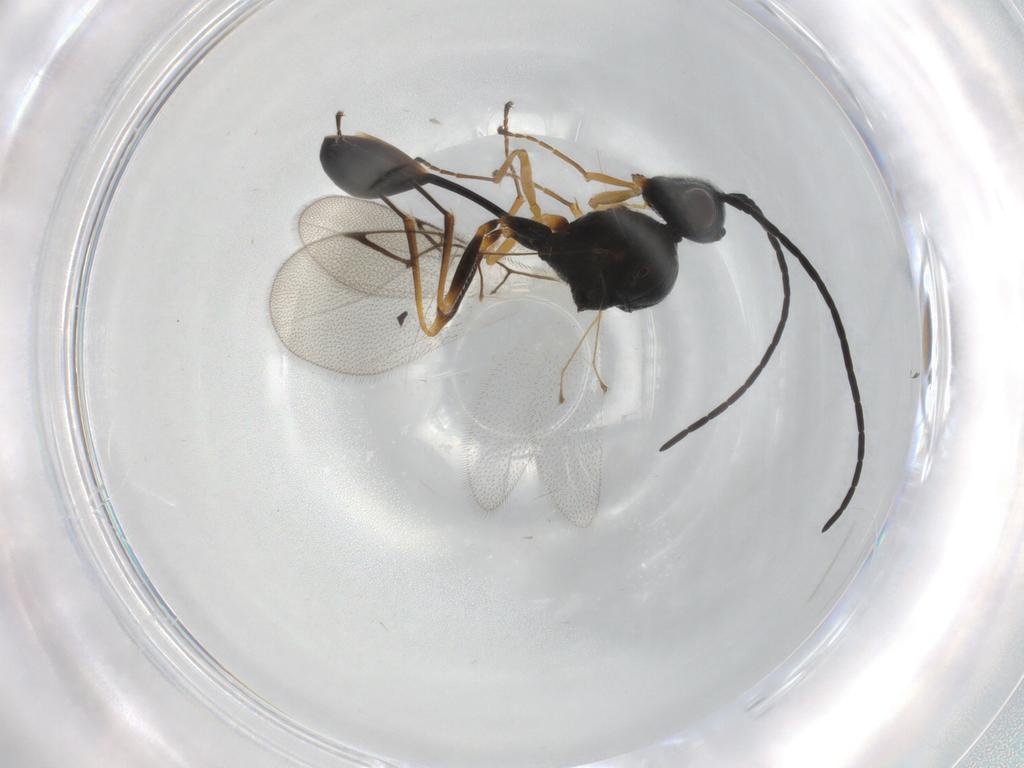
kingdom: Animalia
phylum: Arthropoda
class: Insecta
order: Hymenoptera
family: Figitidae
